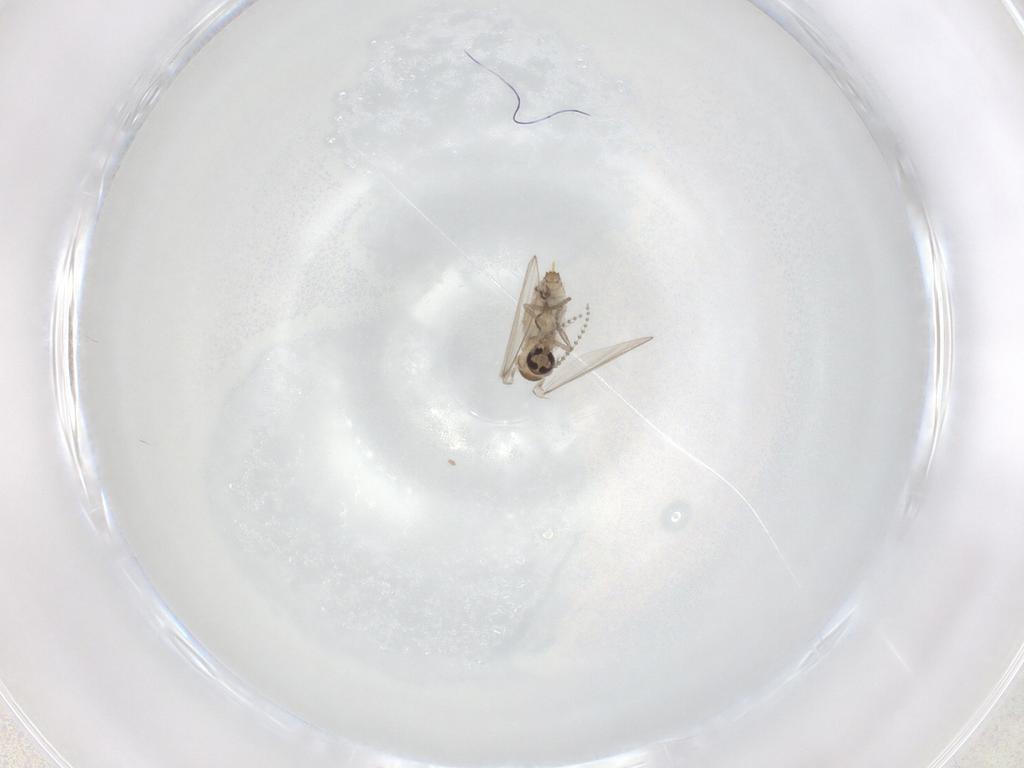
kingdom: Animalia
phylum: Arthropoda
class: Insecta
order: Diptera
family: Psychodidae
